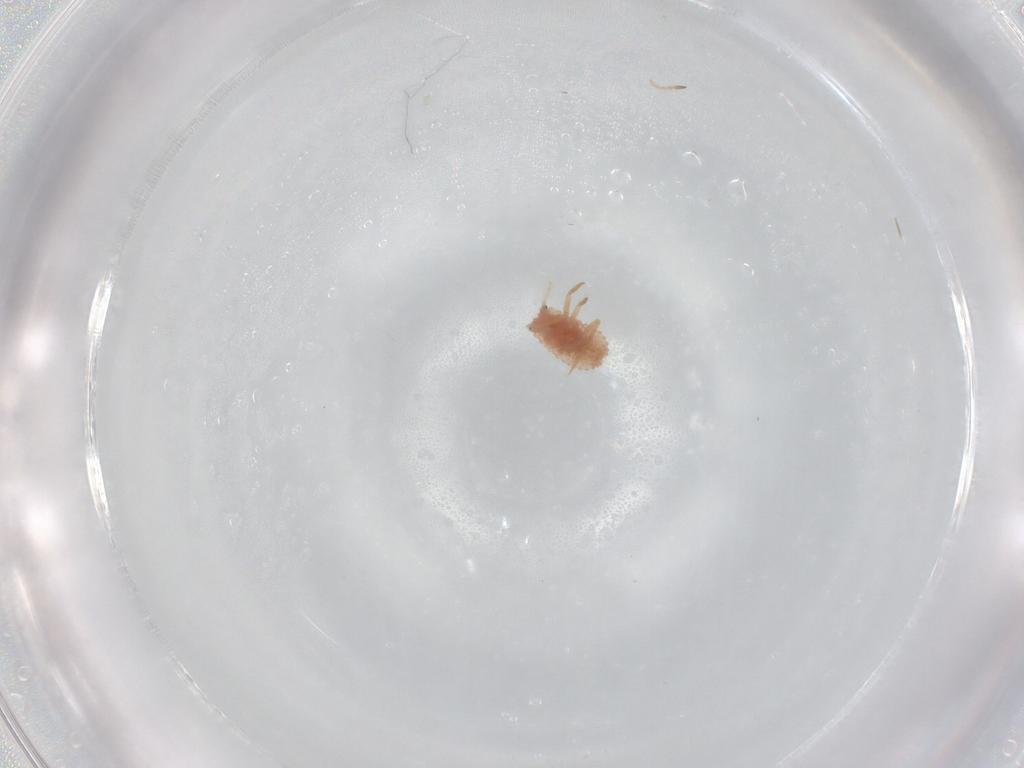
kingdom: Animalia
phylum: Arthropoda
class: Insecta
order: Hemiptera
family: Coccoidea_incertae_sedis
